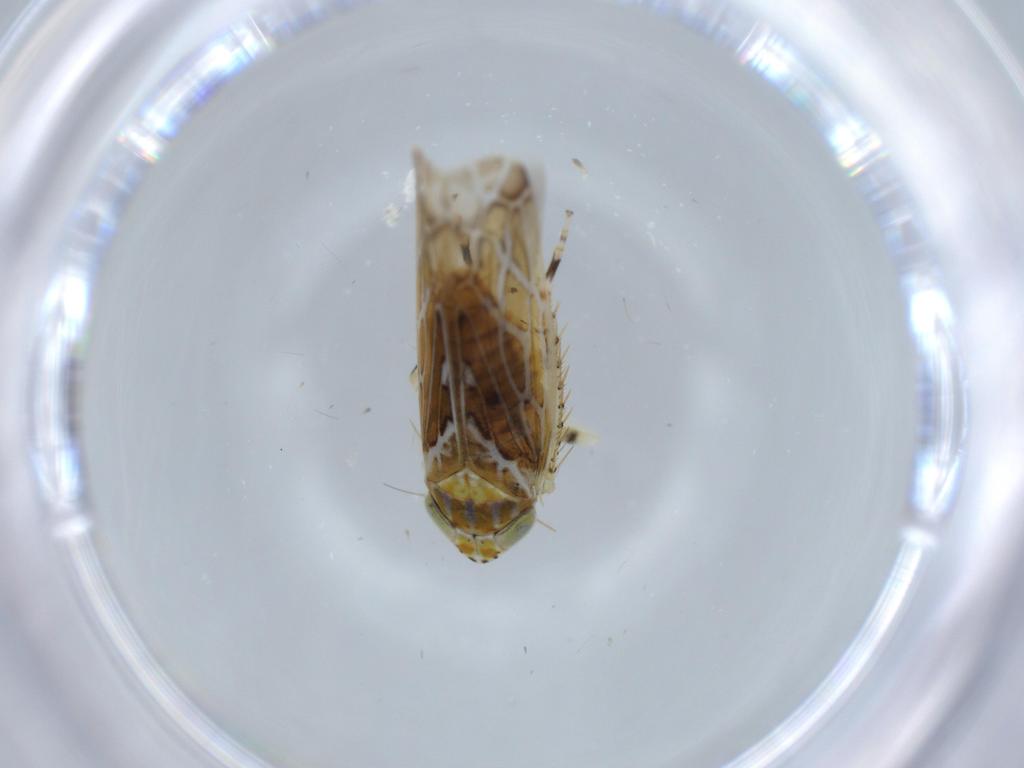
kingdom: Animalia
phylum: Arthropoda
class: Insecta
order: Hemiptera
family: Cicadellidae
